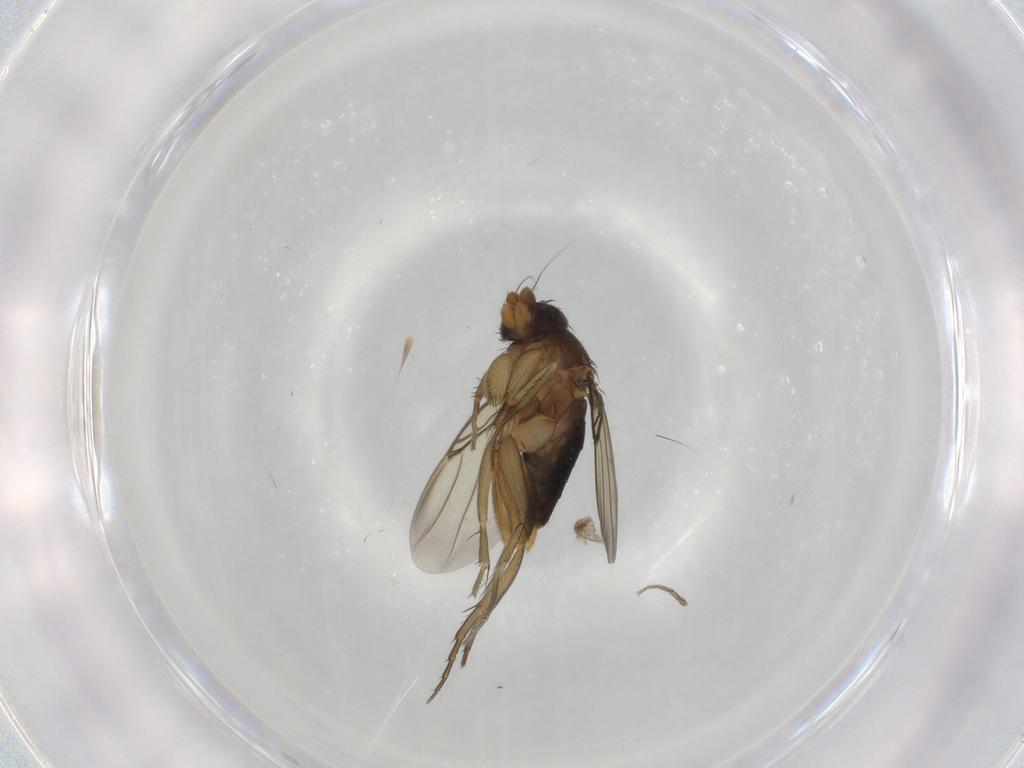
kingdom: Animalia
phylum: Arthropoda
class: Insecta
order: Diptera
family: Phoridae
